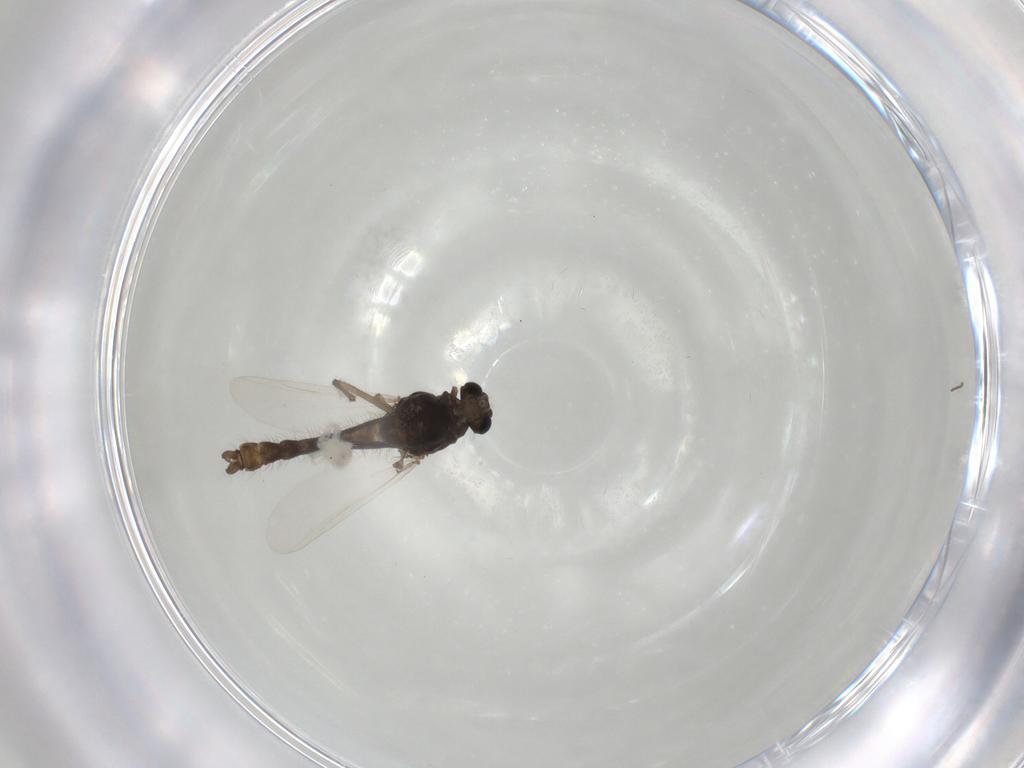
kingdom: Animalia
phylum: Arthropoda
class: Insecta
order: Diptera
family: Chironomidae
